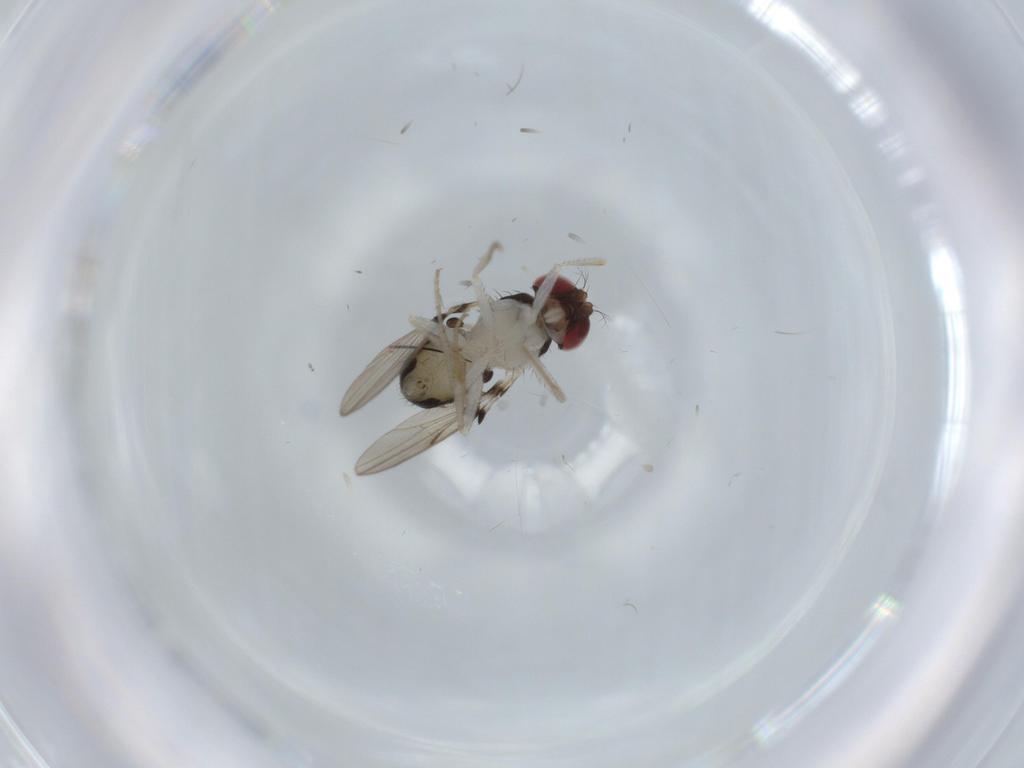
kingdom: Animalia
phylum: Arthropoda
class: Insecta
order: Diptera
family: Drosophilidae
